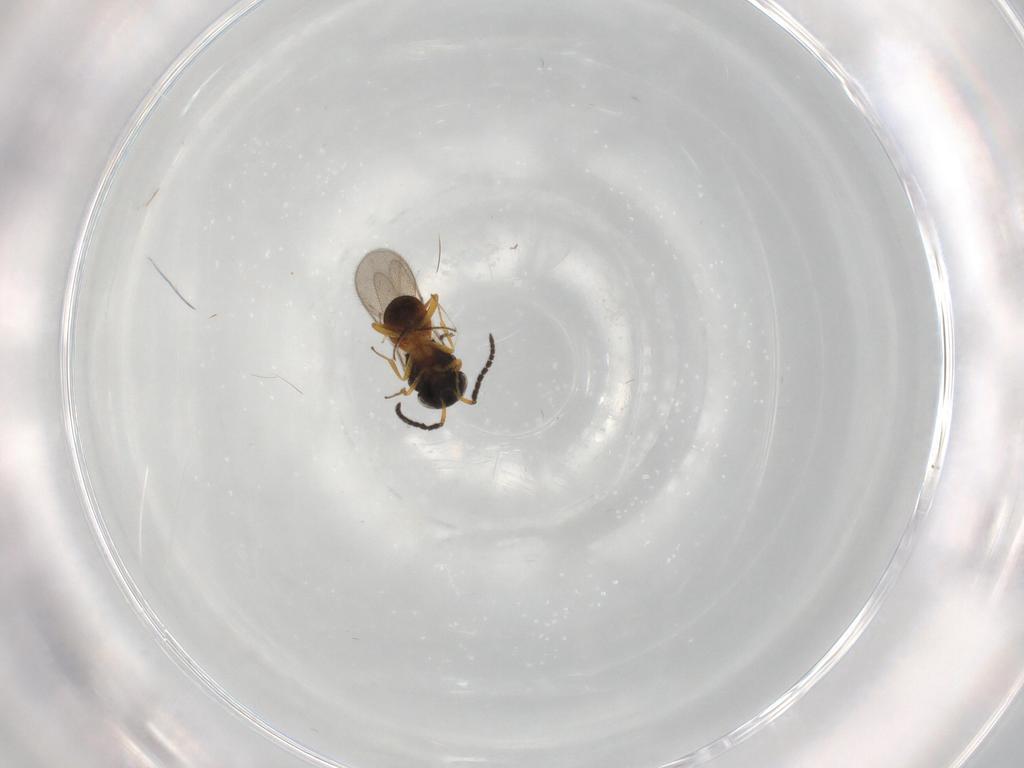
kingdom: Animalia
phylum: Arthropoda
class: Insecta
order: Hymenoptera
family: Scelionidae
